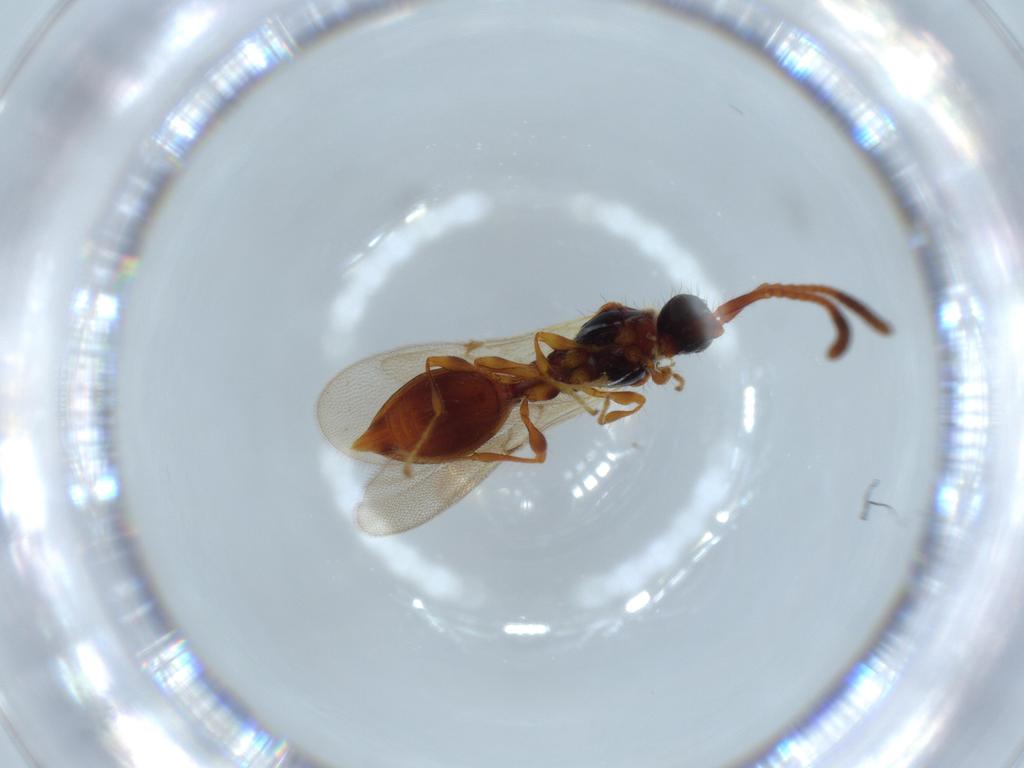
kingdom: Animalia
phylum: Arthropoda
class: Insecta
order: Hymenoptera
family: Diapriidae
